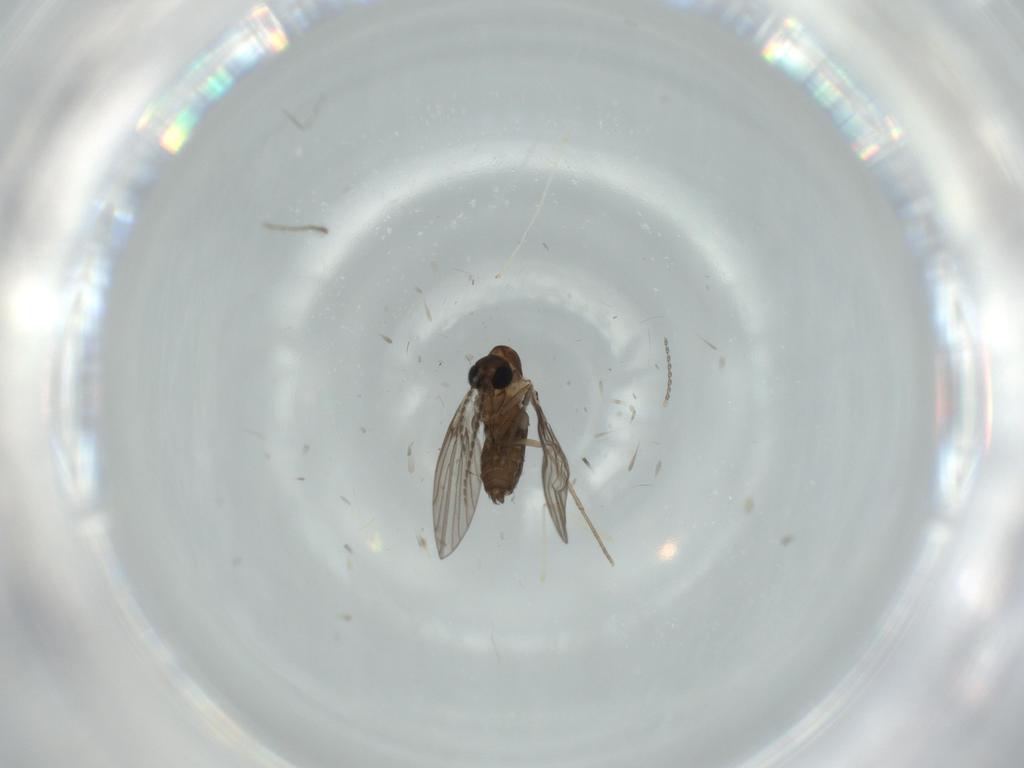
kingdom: Animalia
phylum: Arthropoda
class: Insecta
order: Diptera
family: Psychodidae
